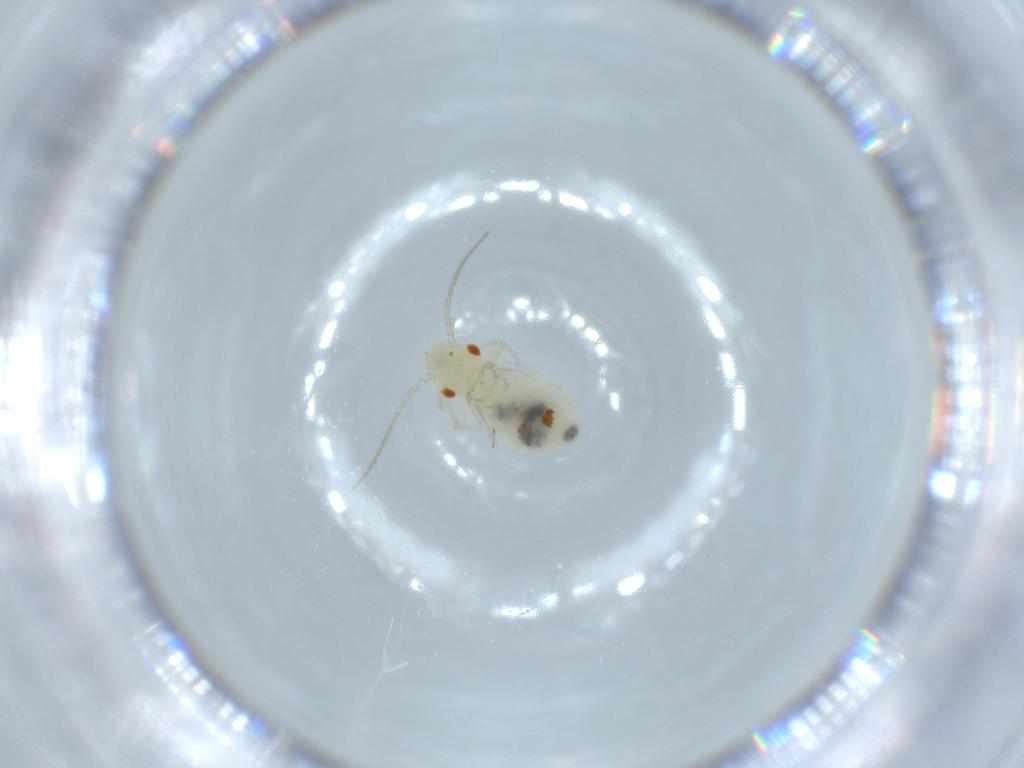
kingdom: Animalia
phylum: Arthropoda
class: Insecta
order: Psocodea
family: Caeciliusidae
